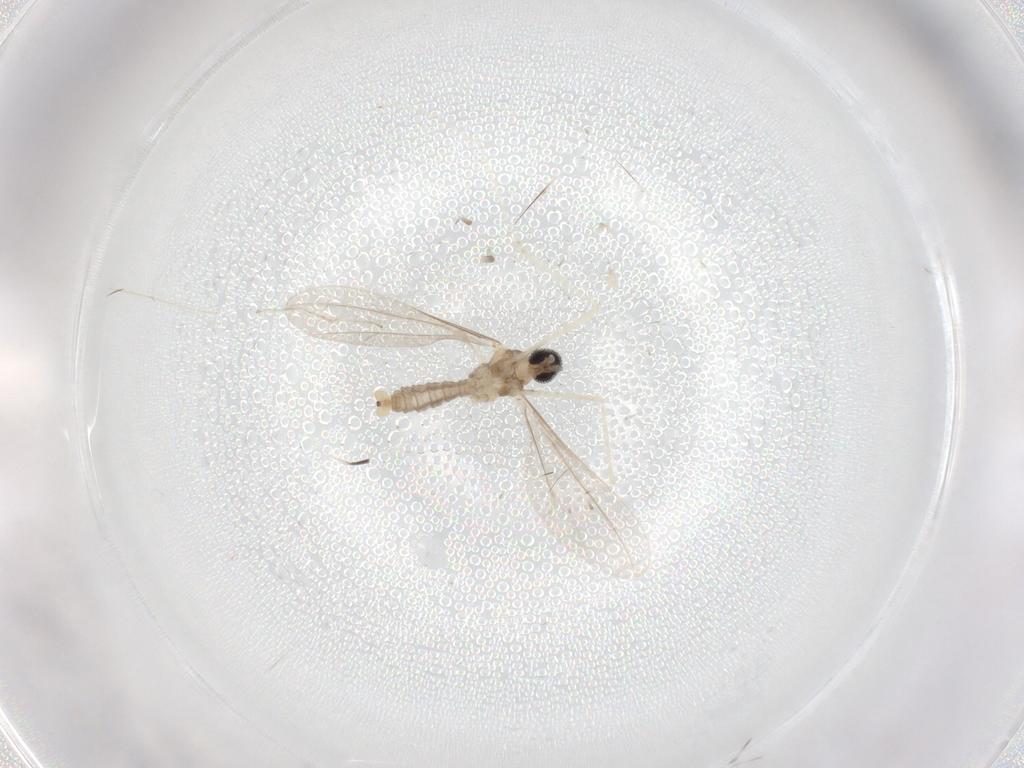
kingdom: Animalia
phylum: Arthropoda
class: Insecta
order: Diptera
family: Cecidomyiidae
